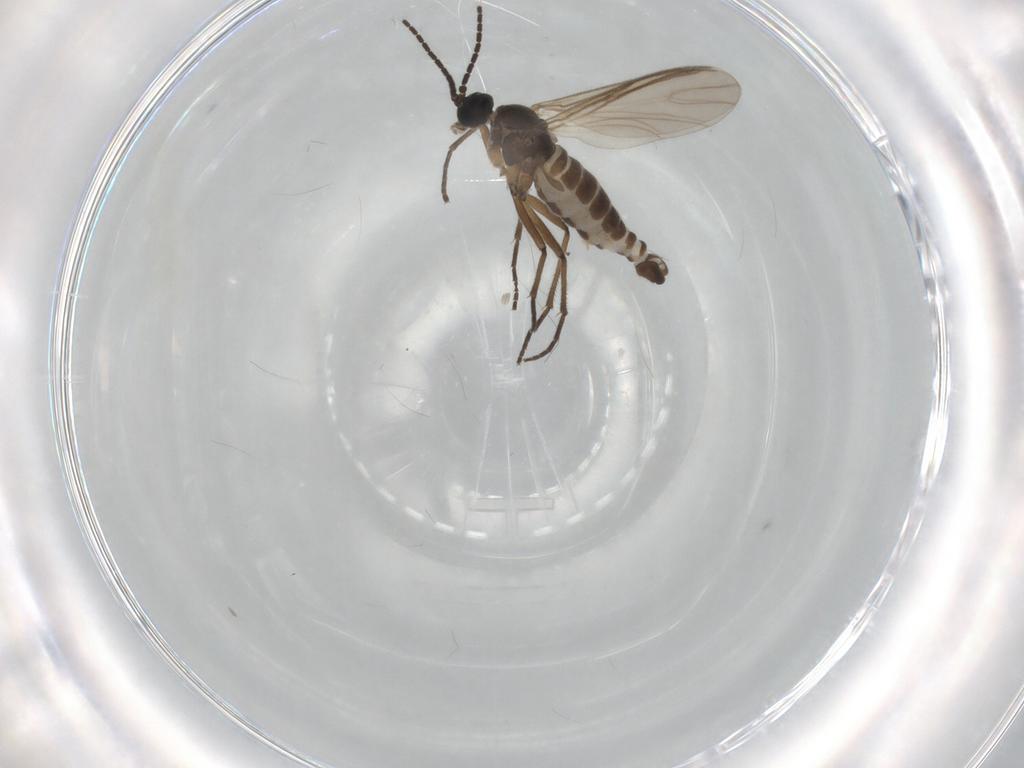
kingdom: Animalia
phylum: Arthropoda
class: Insecta
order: Diptera
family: Sciaridae
